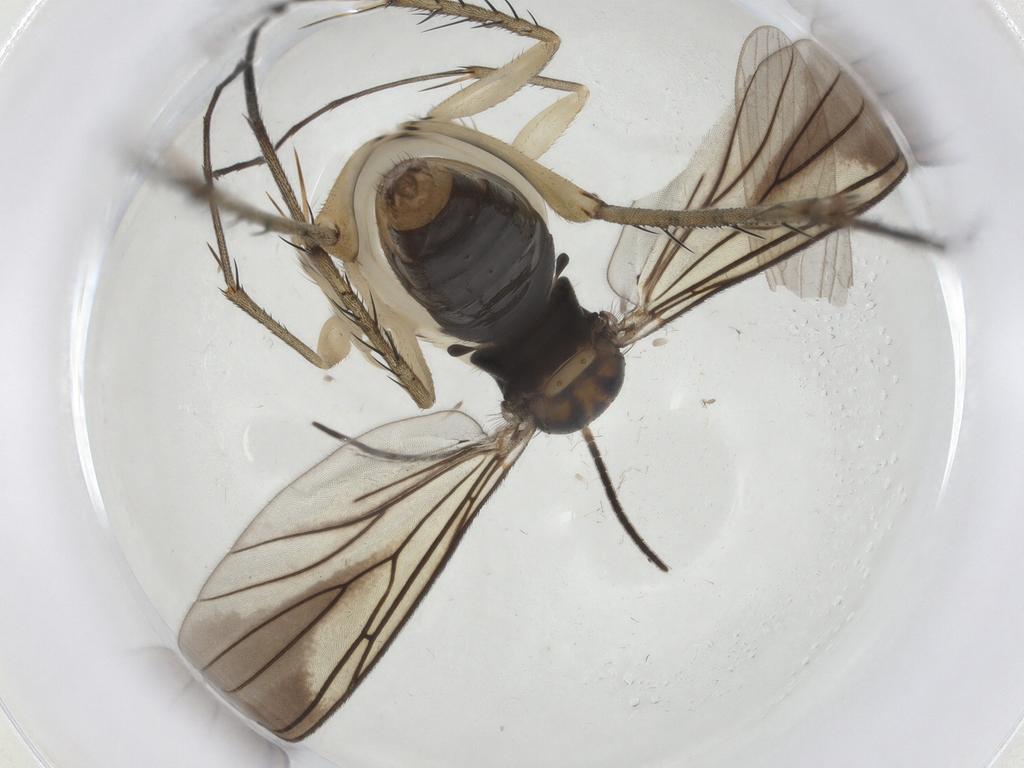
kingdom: Animalia
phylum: Arthropoda
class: Insecta
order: Diptera
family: Mycetophilidae
